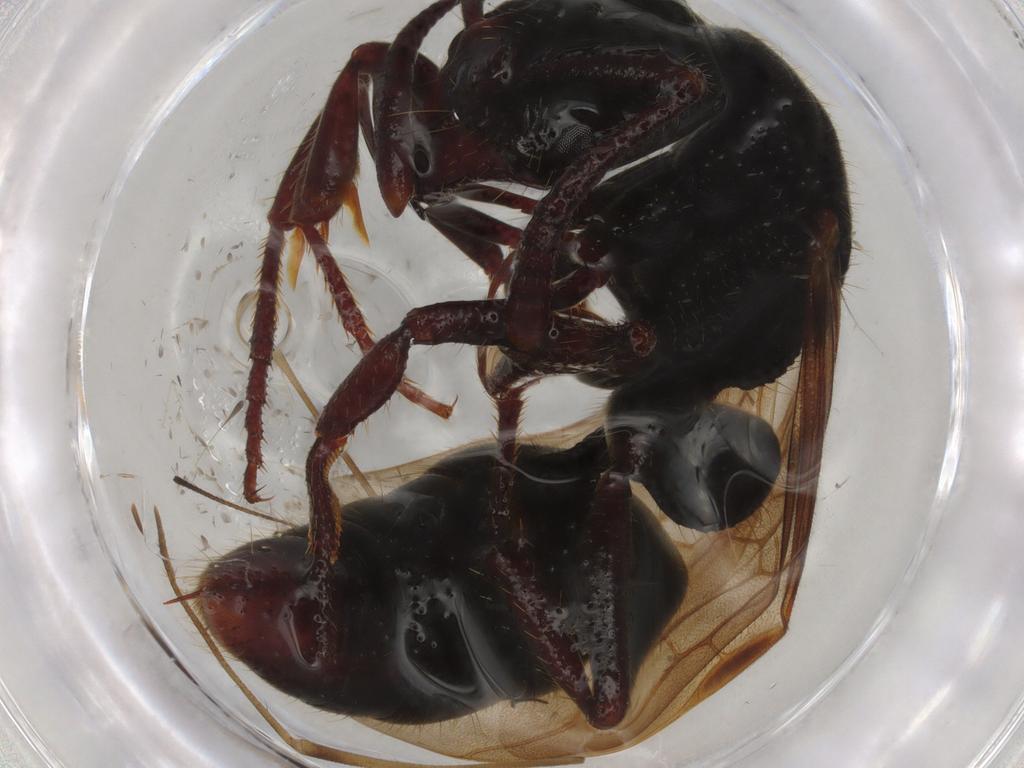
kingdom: Animalia
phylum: Arthropoda
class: Insecta
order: Hymenoptera
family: Formicidae
